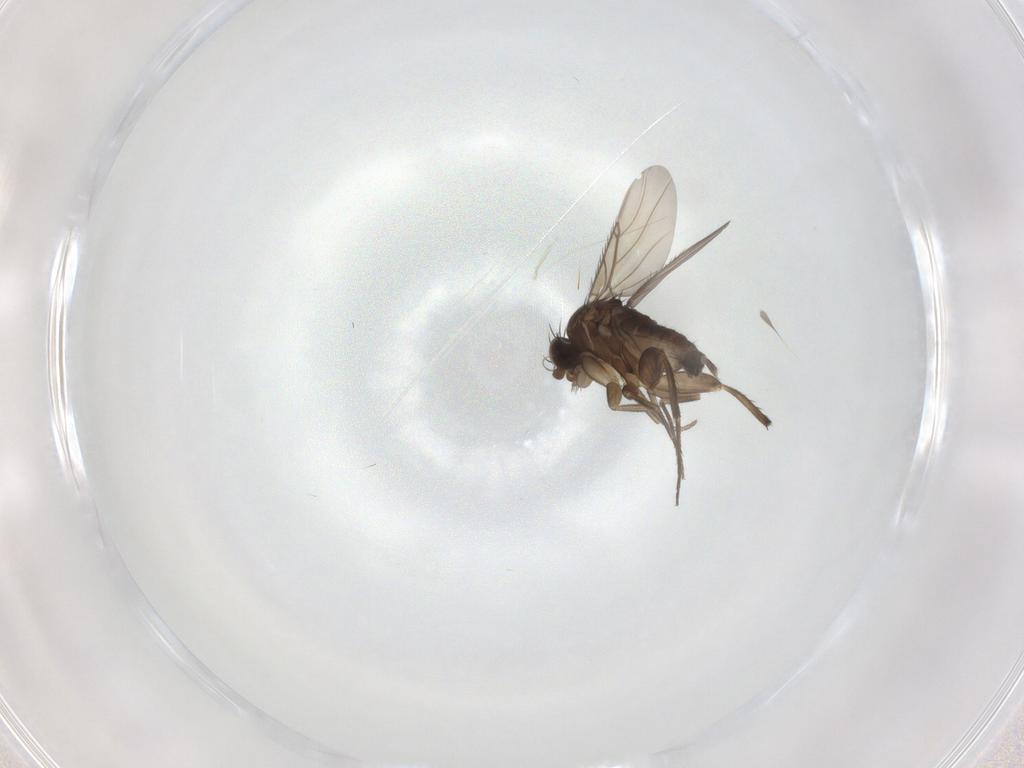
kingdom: Animalia
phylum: Arthropoda
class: Insecta
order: Diptera
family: Phoridae
